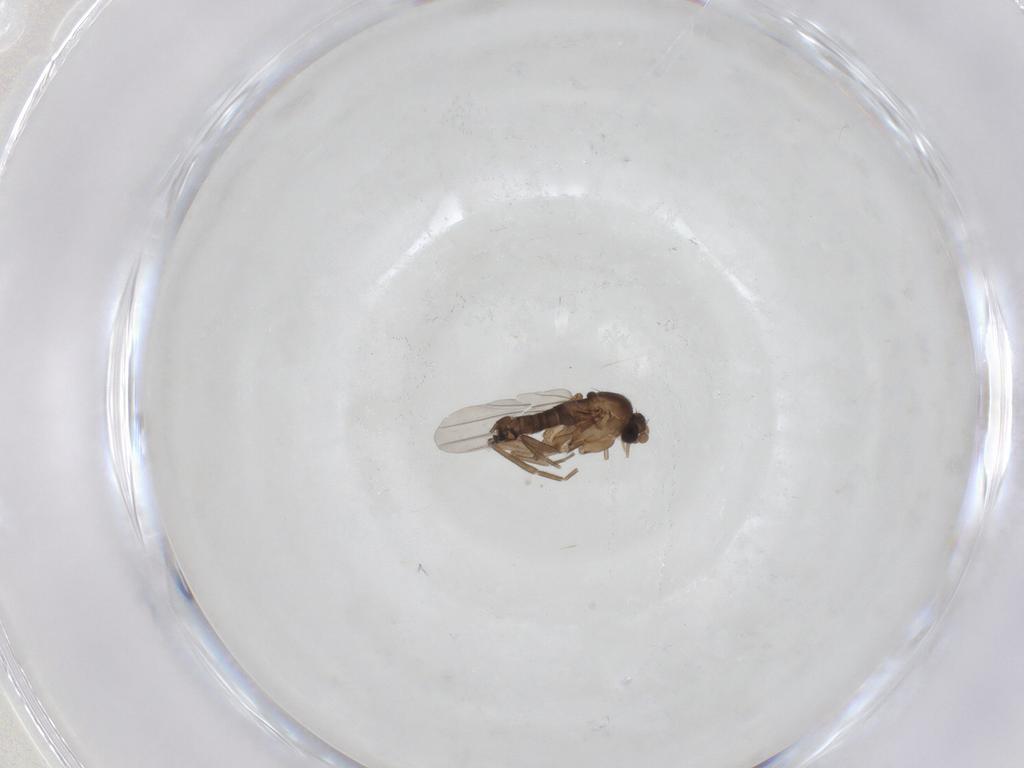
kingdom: Animalia
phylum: Arthropoda
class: Insecta
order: Diptera
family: Phoridae
